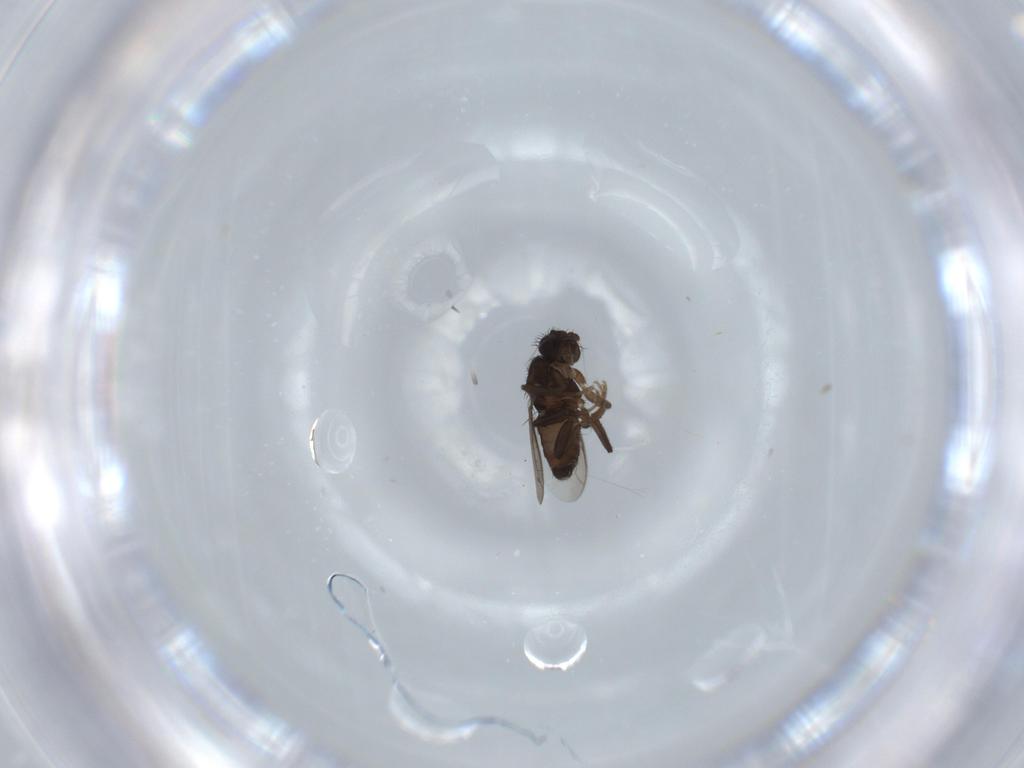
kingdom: Animalia
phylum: Arthropoda
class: Insecta
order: Diptera
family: Sphaeroceridae
